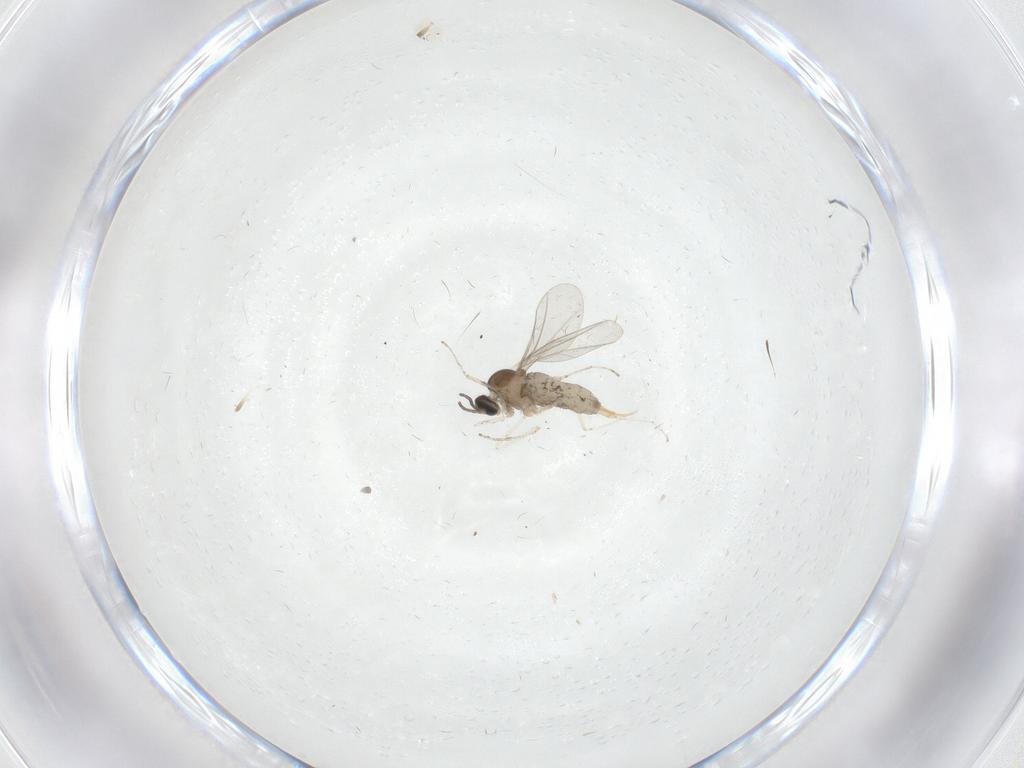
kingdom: Animalia
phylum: Arthropoda
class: Insecta
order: Diptera
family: Cecidomyiidae
